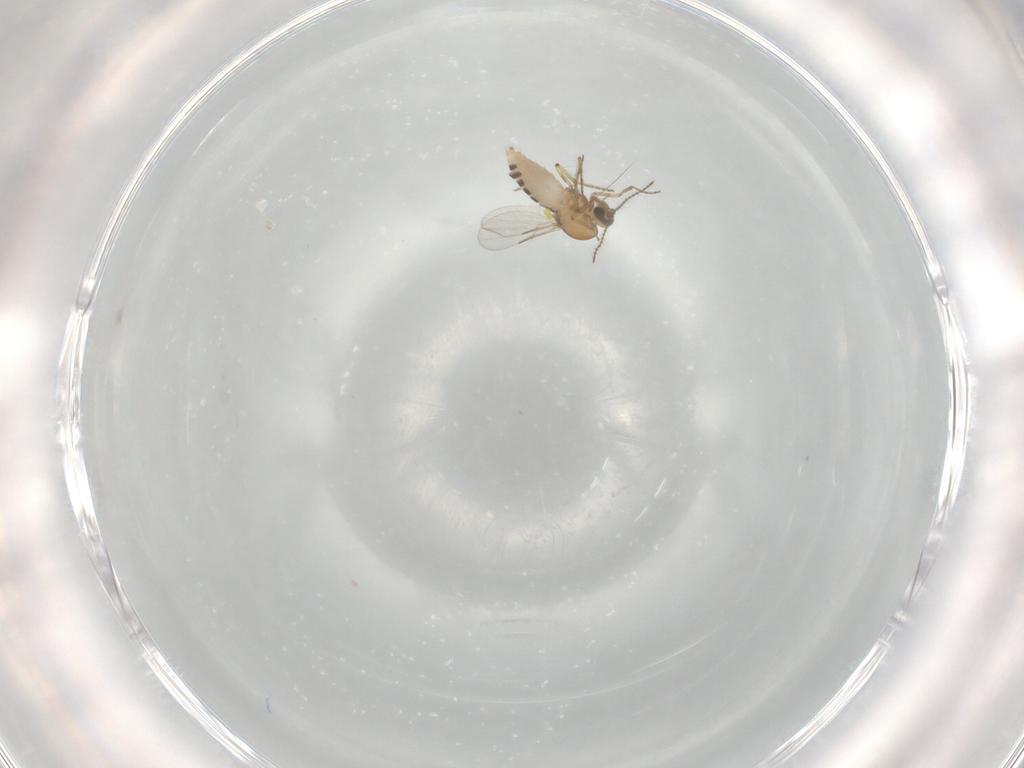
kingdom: Animalia
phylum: Arthropoda
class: Insecta
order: Diptera
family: Ceratopogonidae
